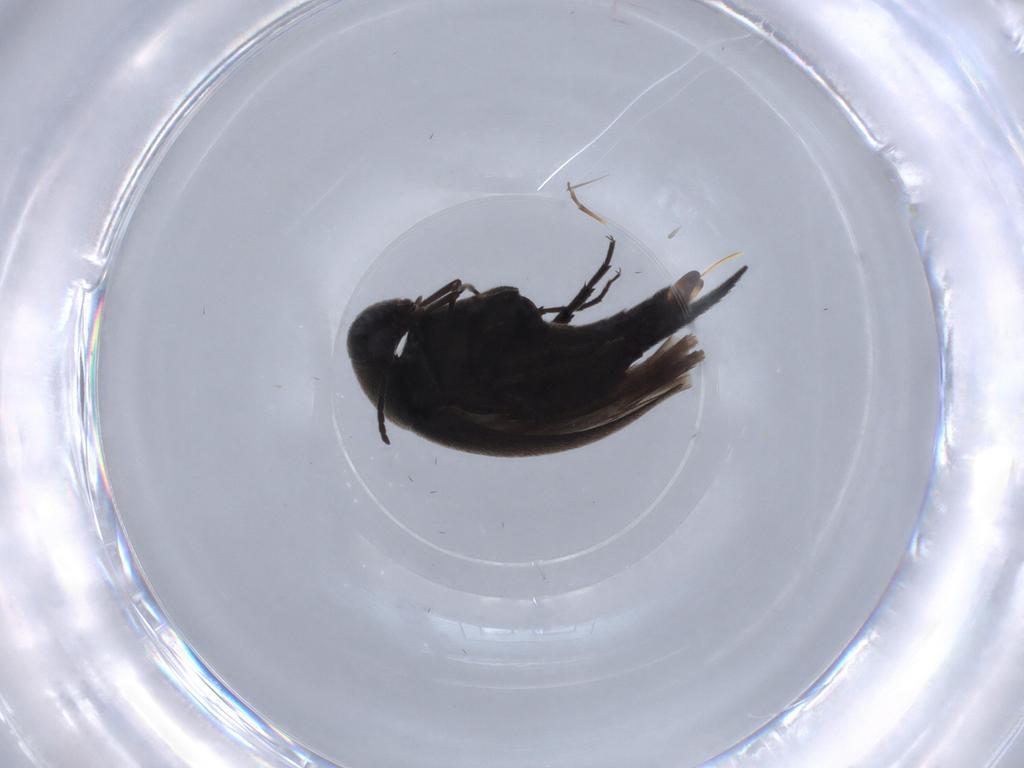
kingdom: Animalia
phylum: Arthropoda
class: Insecta
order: Coleoptera
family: Mordellidae
